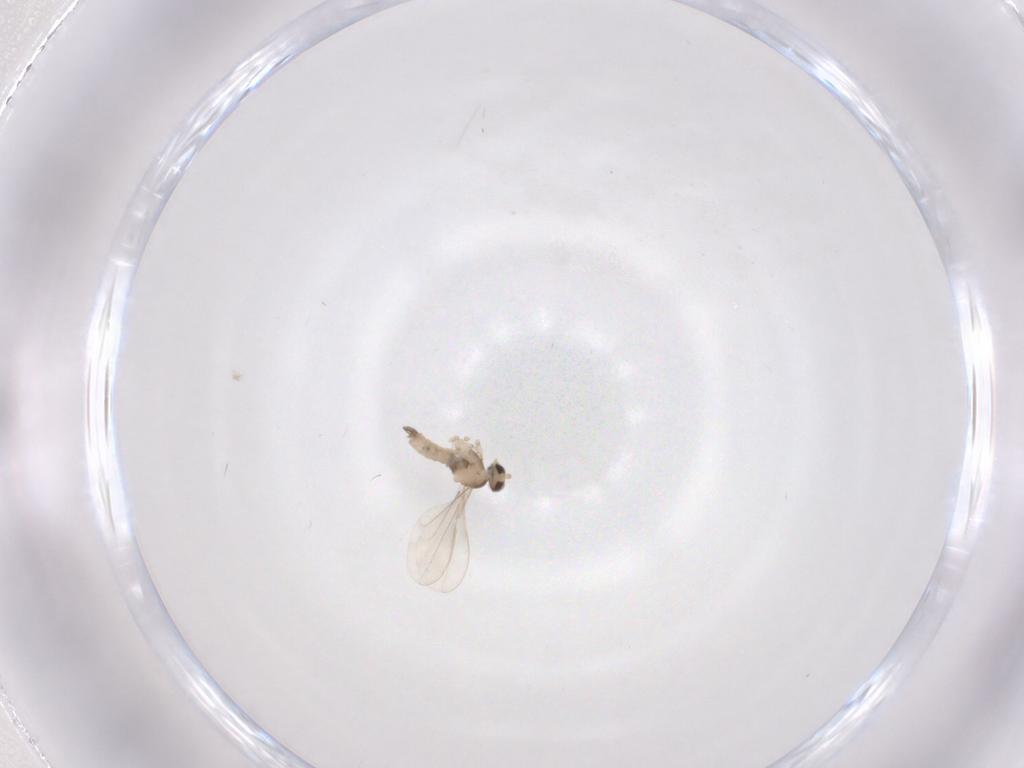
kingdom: Animalia
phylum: Arthropoda
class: Insecta
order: Diptera
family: Cecidomyiidae
